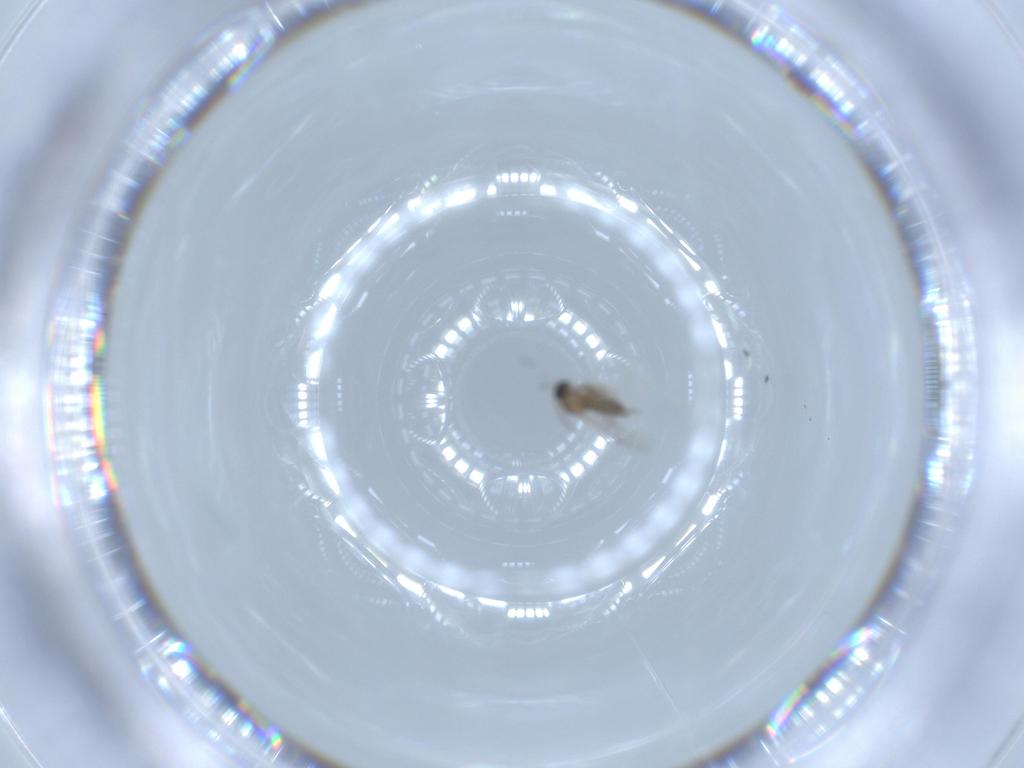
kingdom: Animalia
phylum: Arthropoda
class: Insecta
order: Diptera
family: Cecidomyiidae
